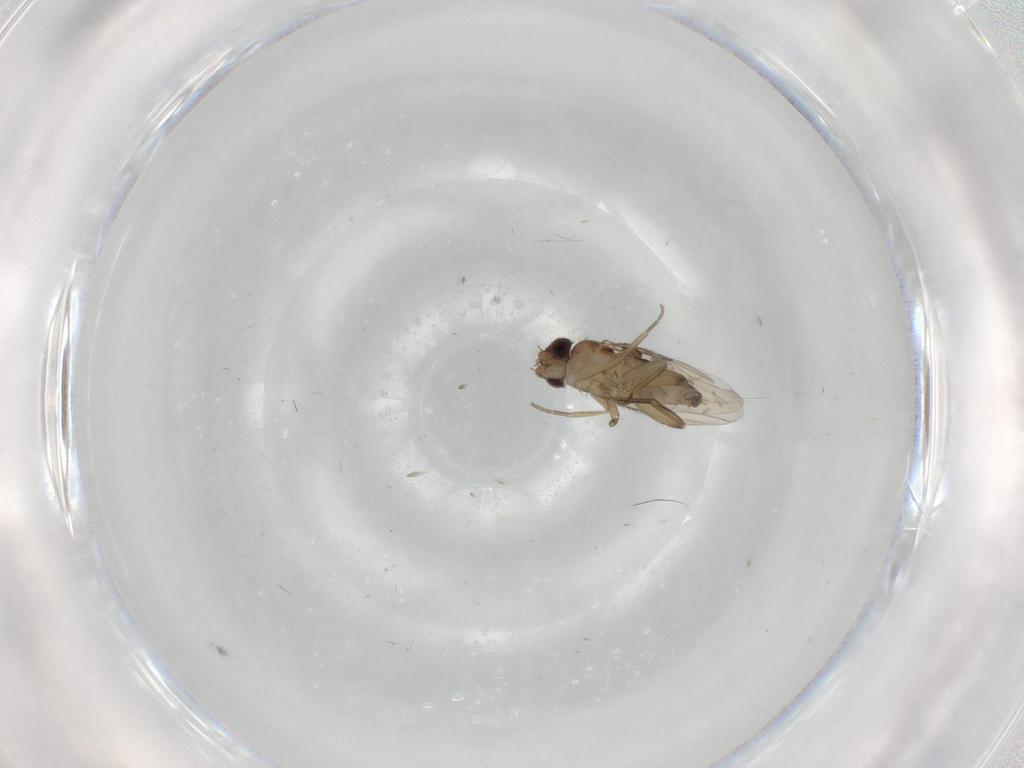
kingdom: Animalia
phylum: Arthropoda
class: Insecta
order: Diptera
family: Phoridae
